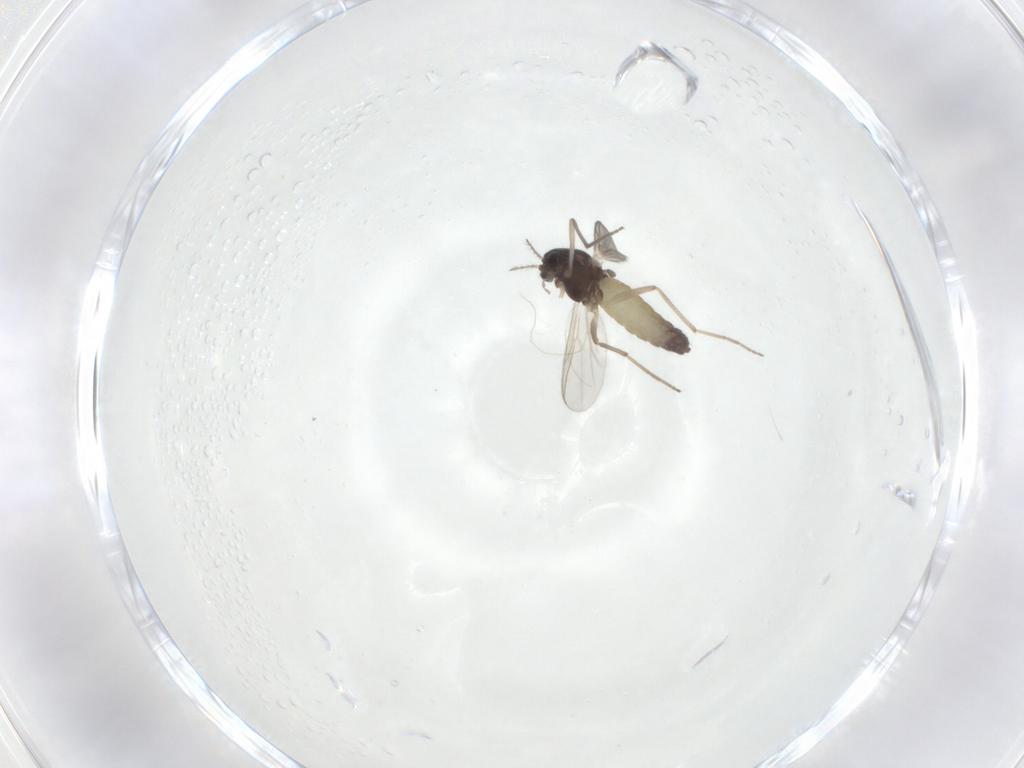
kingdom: Animalia
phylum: Arthropoda
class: Insecta
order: Diptera
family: Chironomidae
